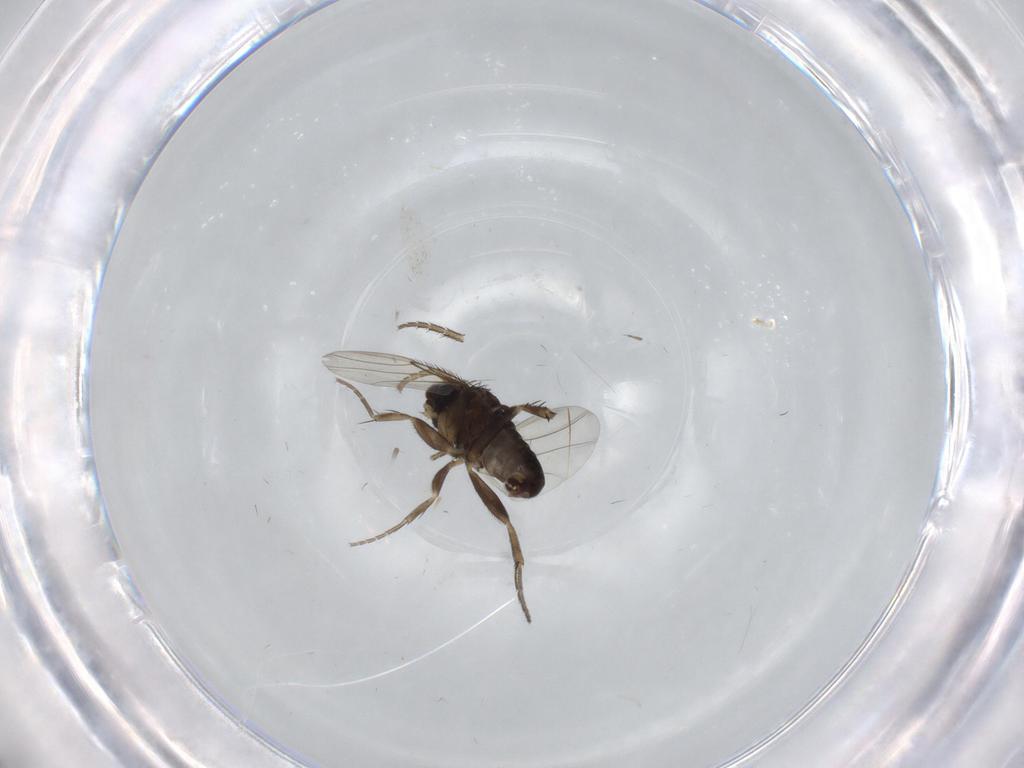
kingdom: Animalia
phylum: Arthropoda
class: Insecta
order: Diptera
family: Phoridae
